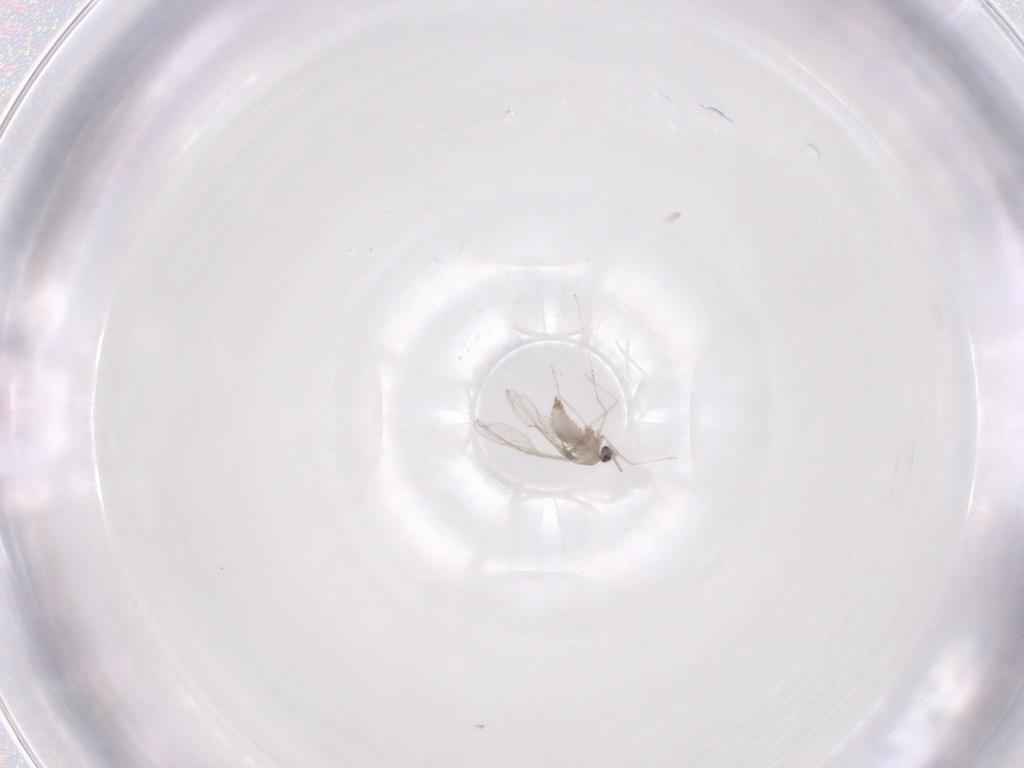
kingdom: Animalia
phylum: Arthropoda
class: Insecta
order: Diptera
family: Cecidomyiidae
